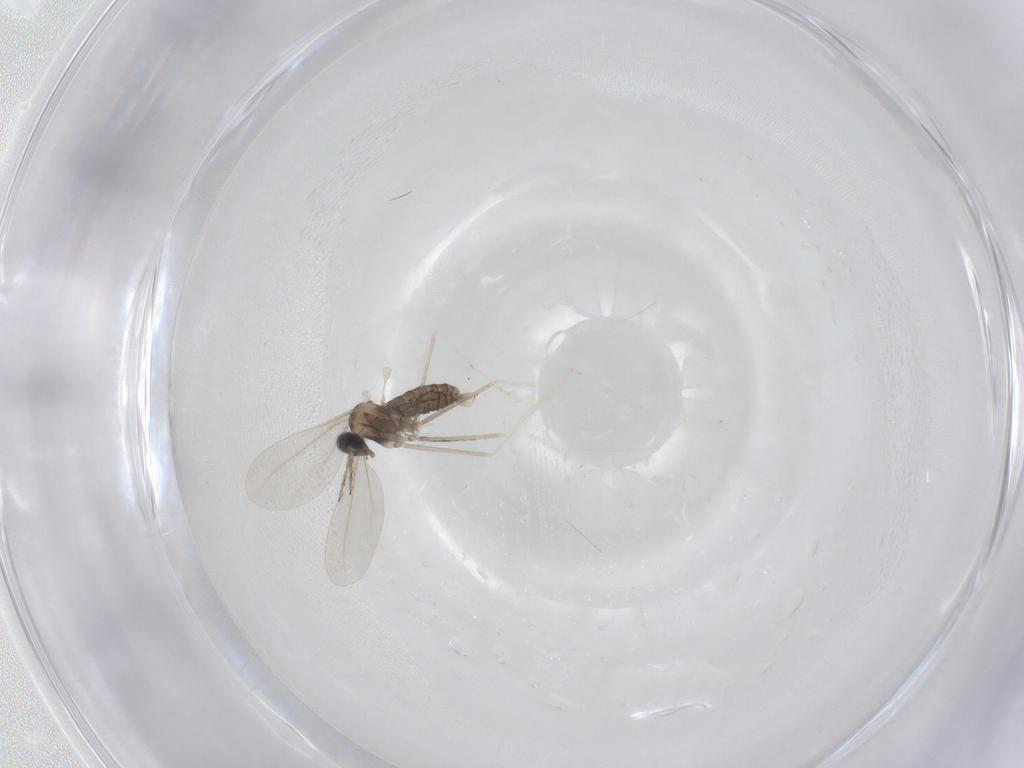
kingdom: Animalia
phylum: Arthropoda
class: Insecta
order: Diptera
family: Cecidomyiidae
